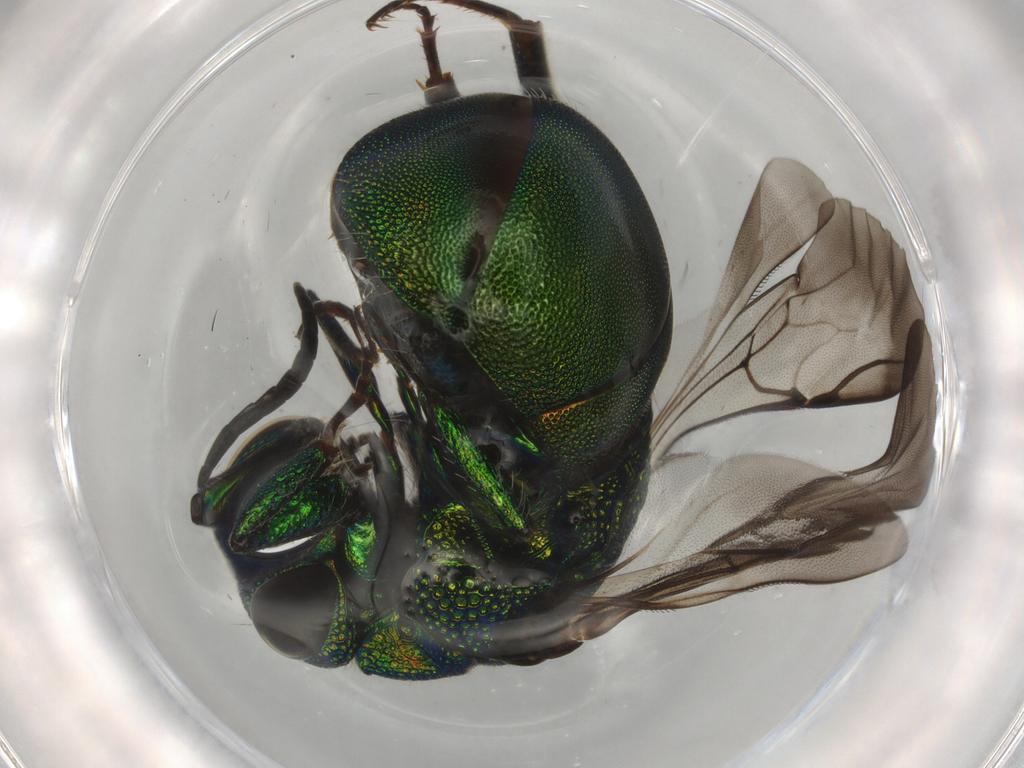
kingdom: Animalia
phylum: Arthropoda
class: Insecta
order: Hymenoptera
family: Chrysididae
